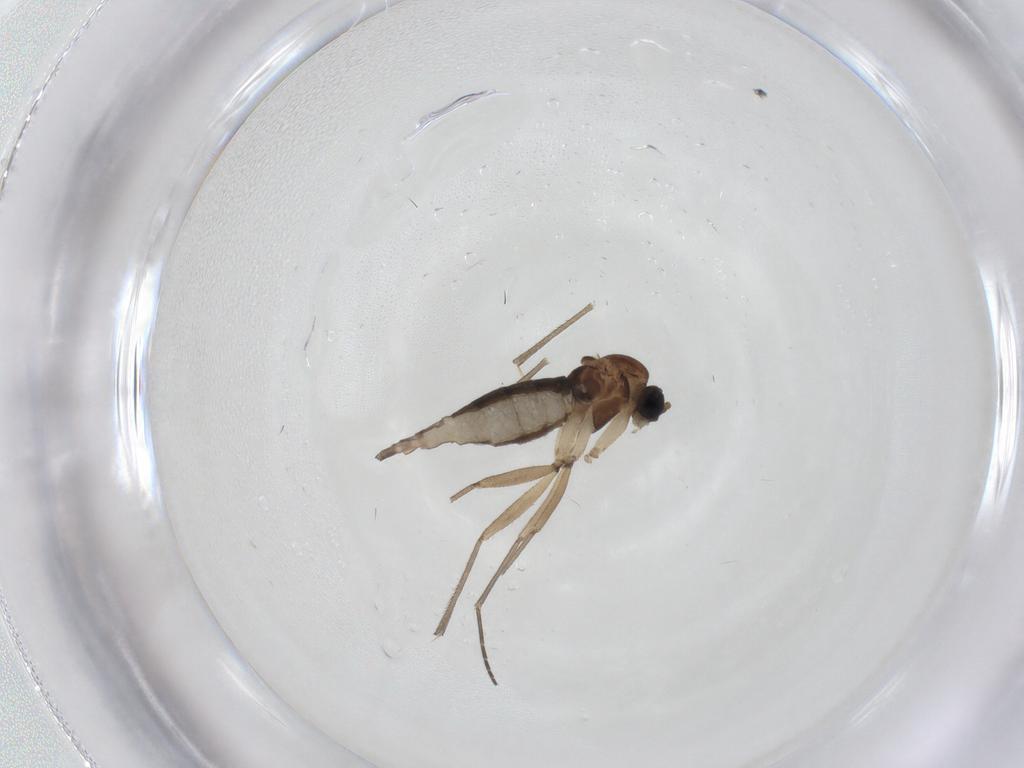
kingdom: Animalia
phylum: Arthropoda
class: Insecta
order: Diptera
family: Sciaridae
